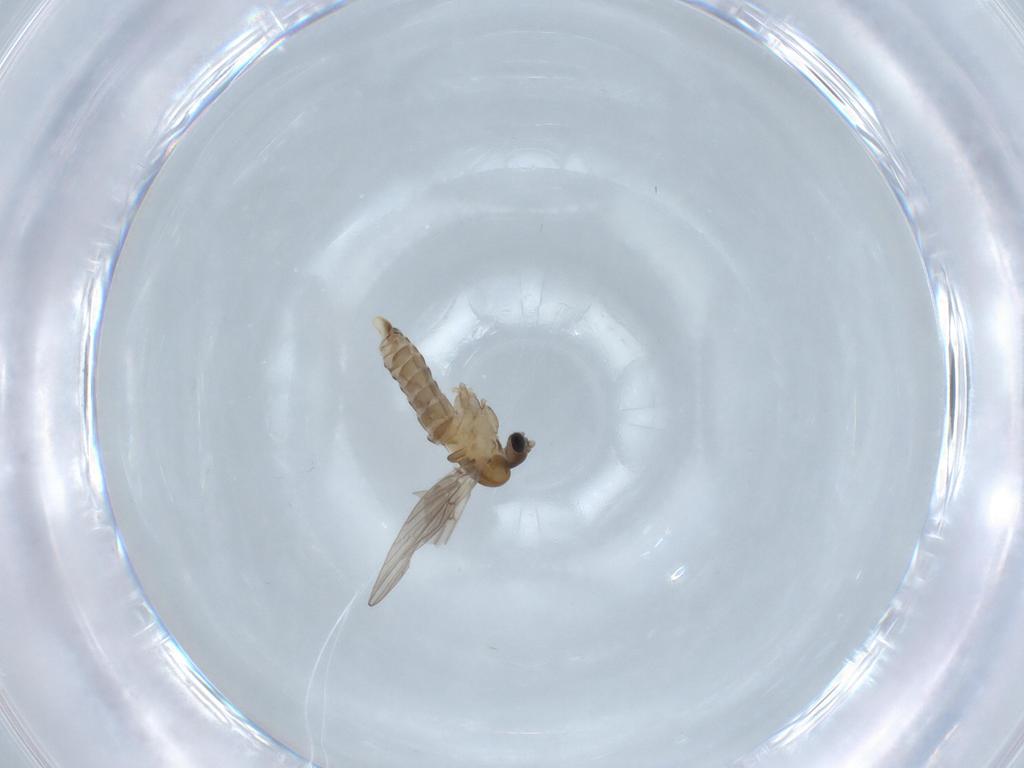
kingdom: Animalia
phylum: Arthropoda
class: Insecta
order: Diptera
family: Psychodidae
